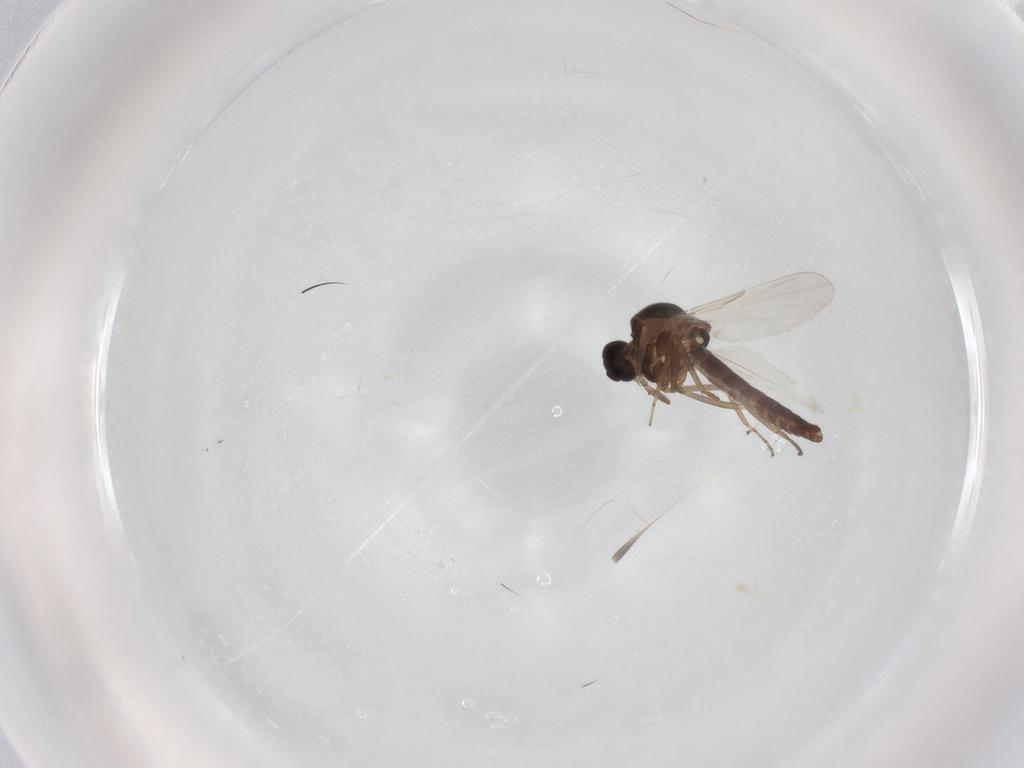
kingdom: Animalia
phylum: Arthropoda
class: Insecta
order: Diptera
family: Ceratopogonidae
